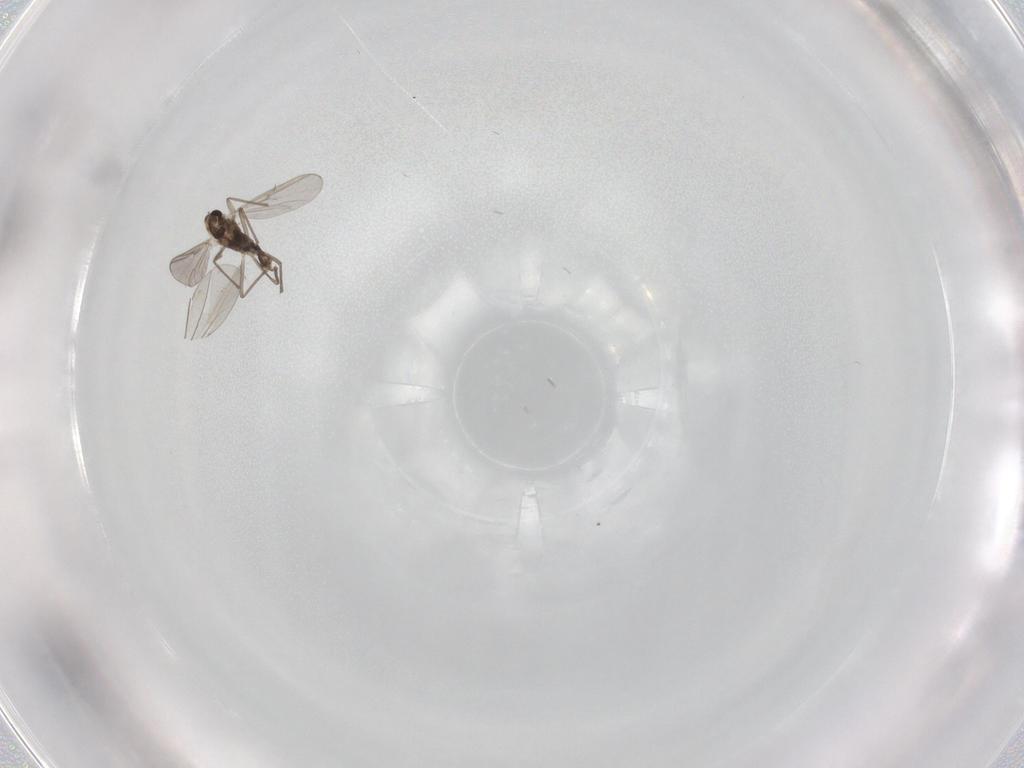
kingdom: Animalia
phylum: Arthropoda
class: Insecta
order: Diptera
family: Chironomidae
